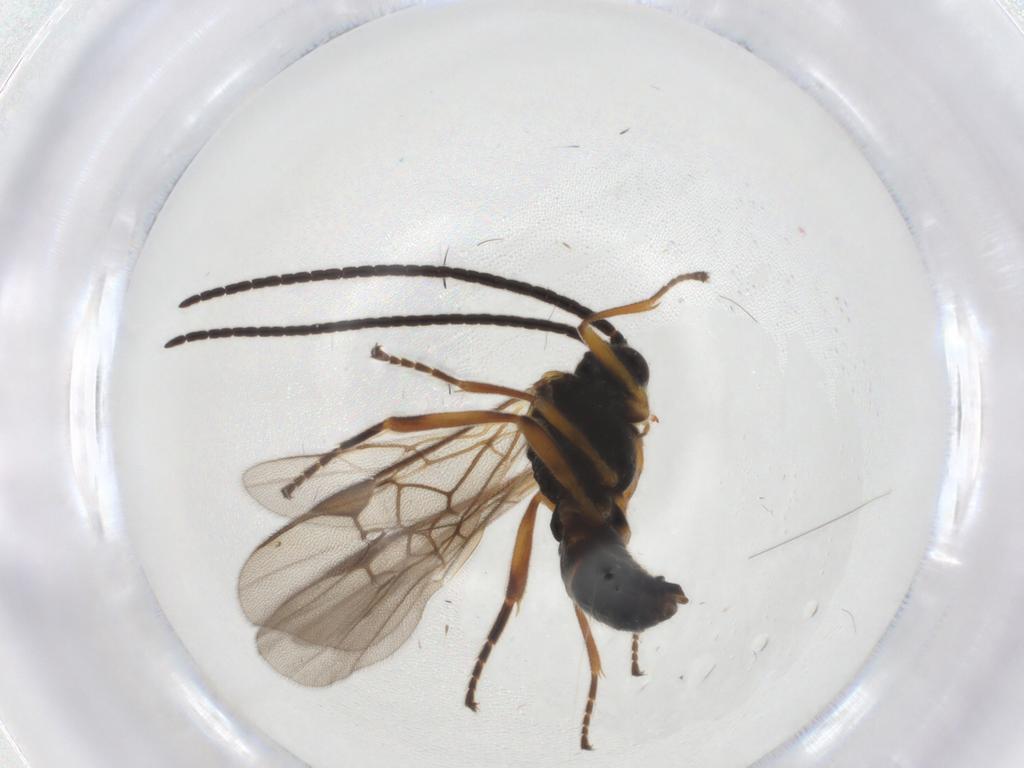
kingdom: Animalia
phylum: Arthropoda
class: Insecta
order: Hymenoptera
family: Braconidae
